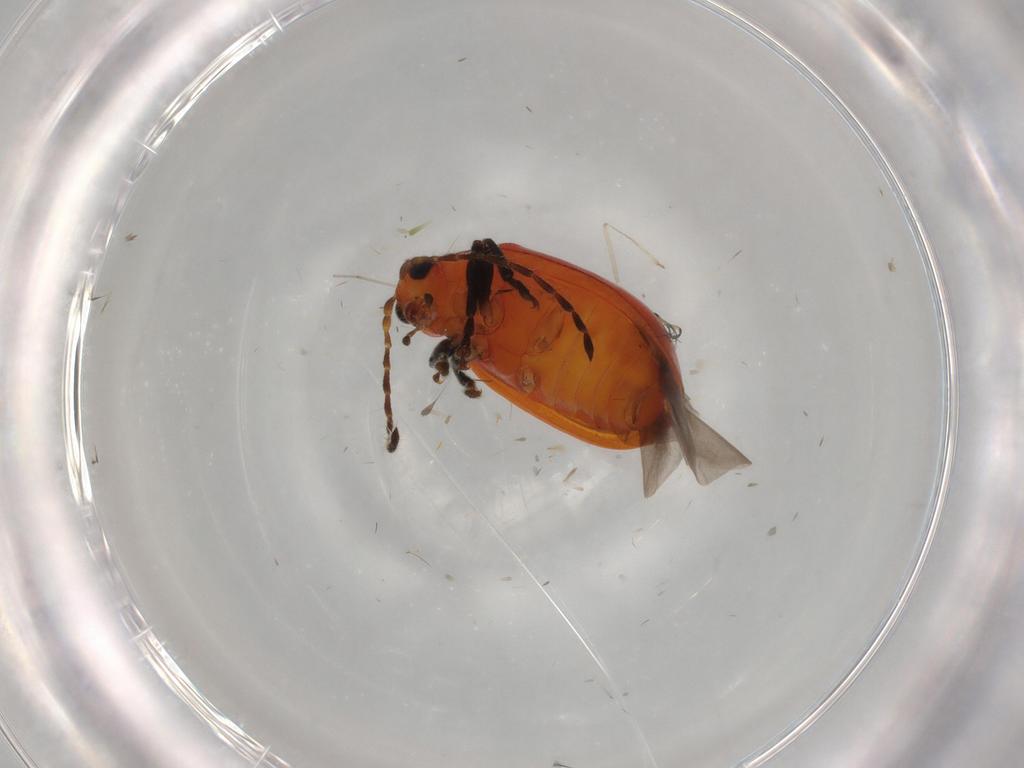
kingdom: Animalia
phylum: Arthropoda
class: Insecta
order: Coleoptera
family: Chrysomelidae
